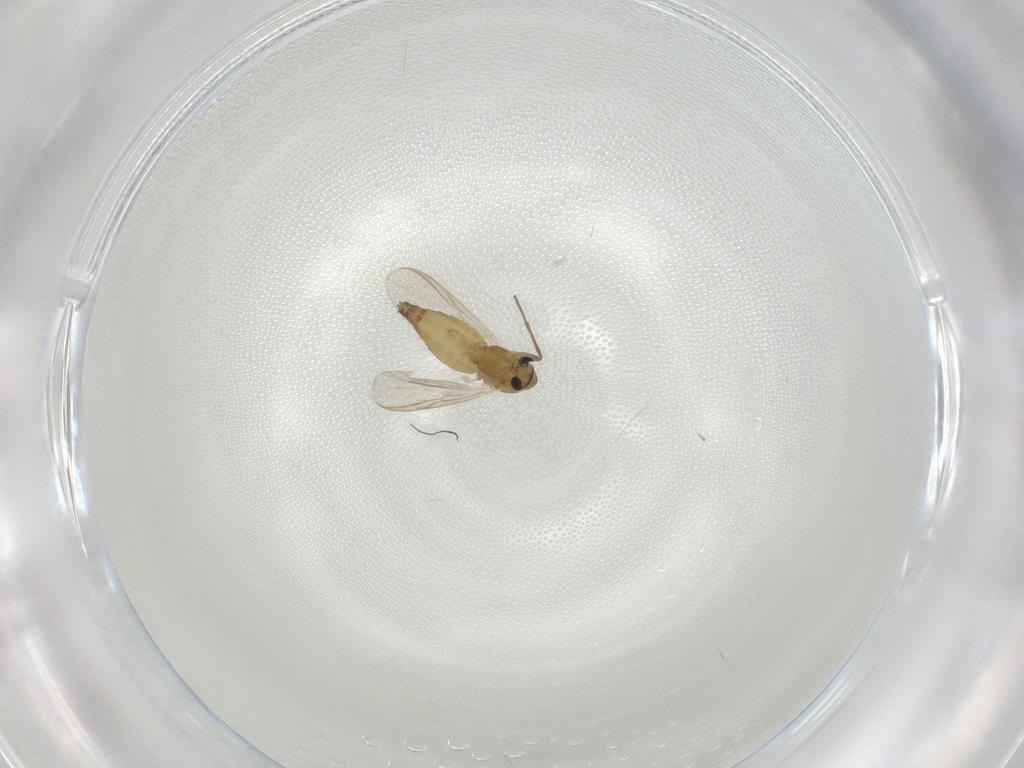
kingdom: Animalia
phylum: Arthropoda
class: Insecta
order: Diptera
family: Chironomidae
